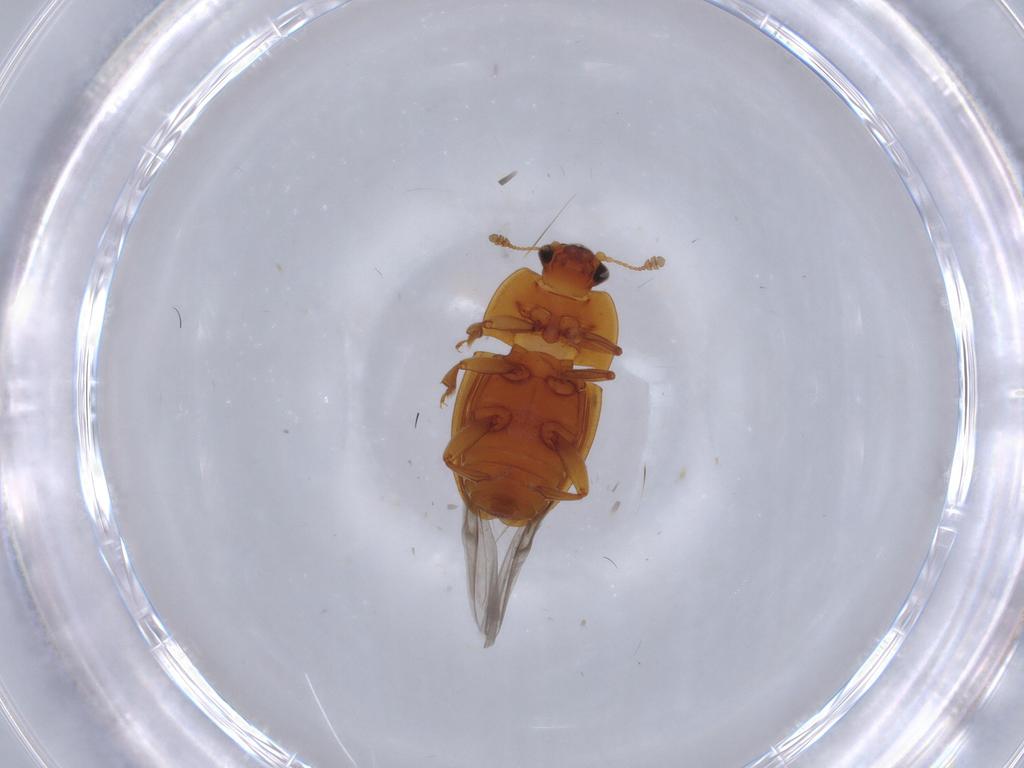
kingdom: Animalia
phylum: Arthropoda
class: Insecta
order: Coleoptera
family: Nitidulidae
